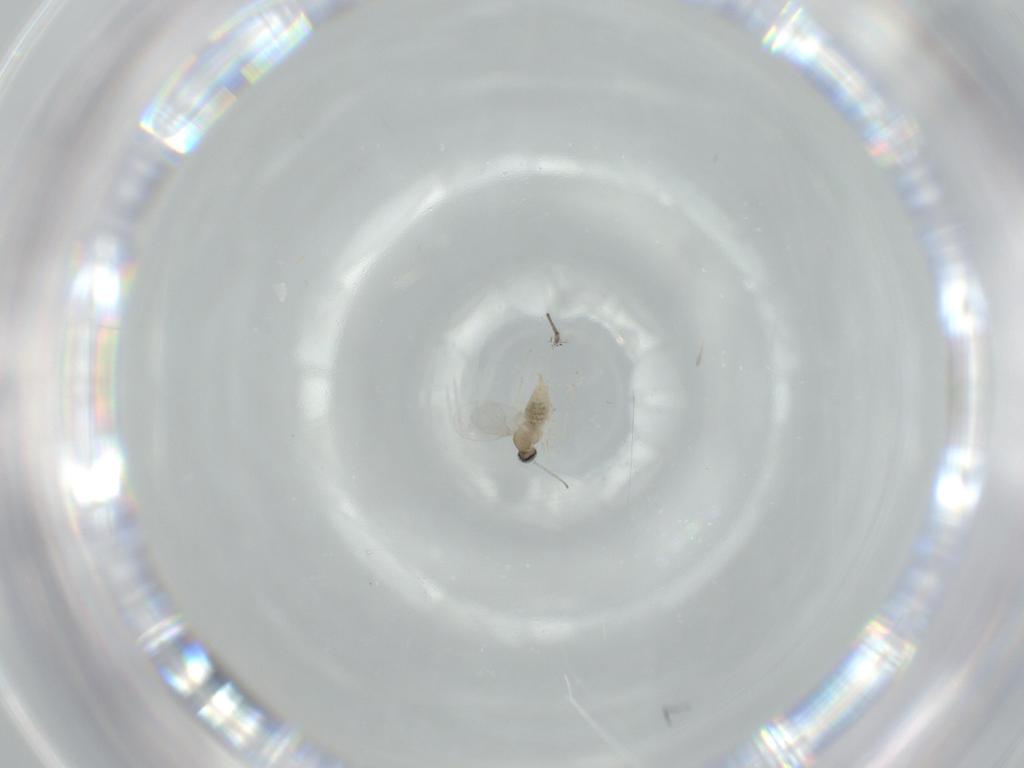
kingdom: Animalia
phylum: Arthropoda
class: Insecta
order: Diptera
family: Cecidomyiidae
